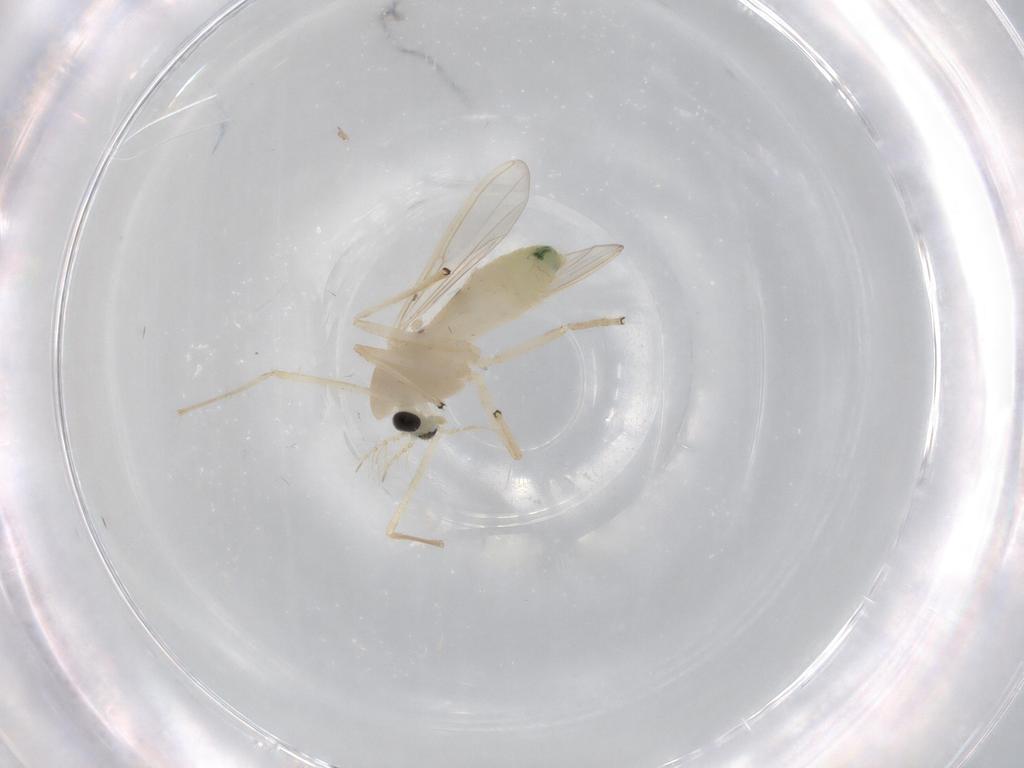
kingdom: Animalia
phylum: Arthropoda
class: Insecta
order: Diptera
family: Chironomidae
